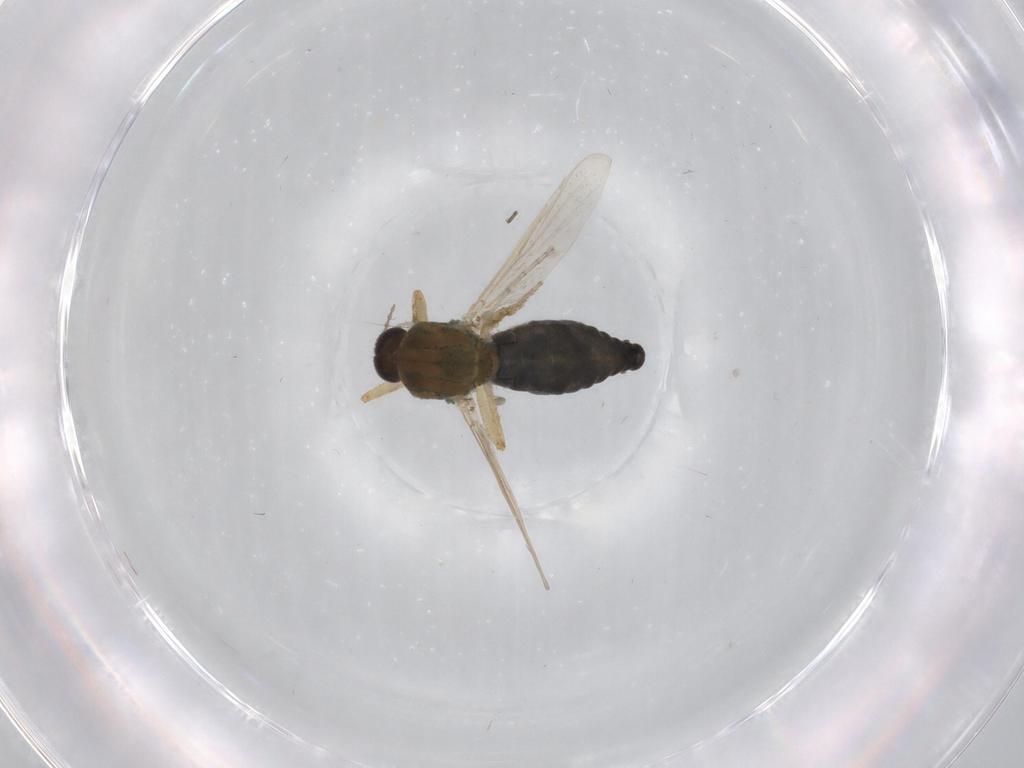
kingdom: Animalia
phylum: Arthropoda
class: Insecta
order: Diptera
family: Ceratopogonidae
